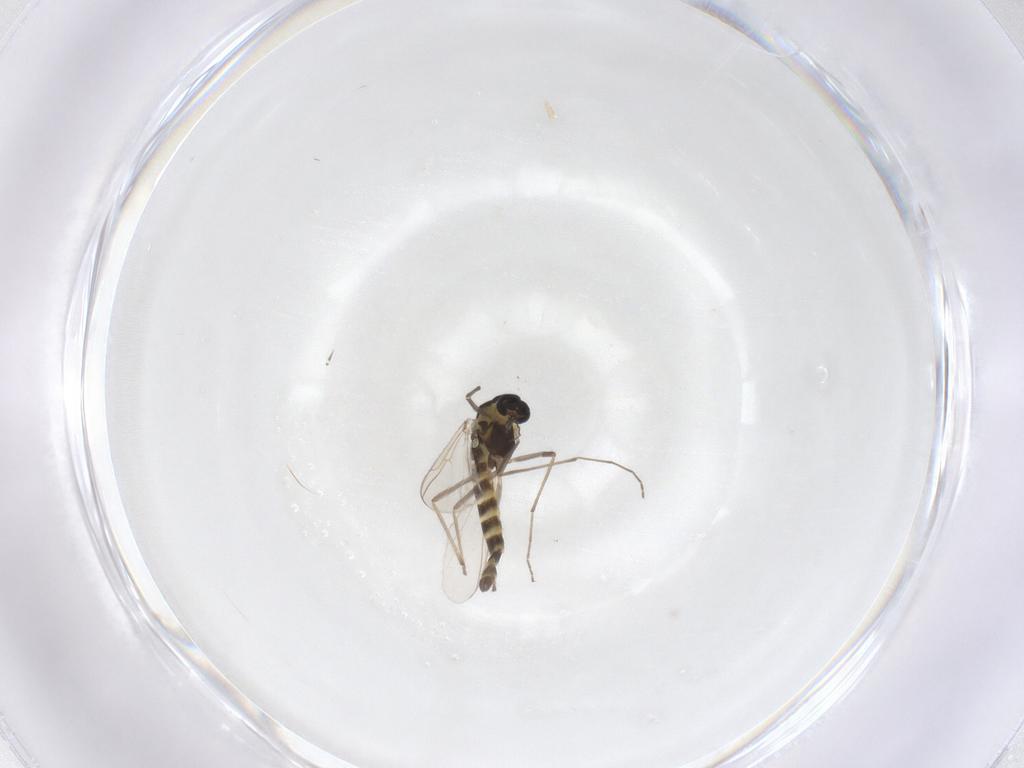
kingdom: Animalia
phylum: Arthropoda
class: Insecta
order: Diptera
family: Chironomidae
